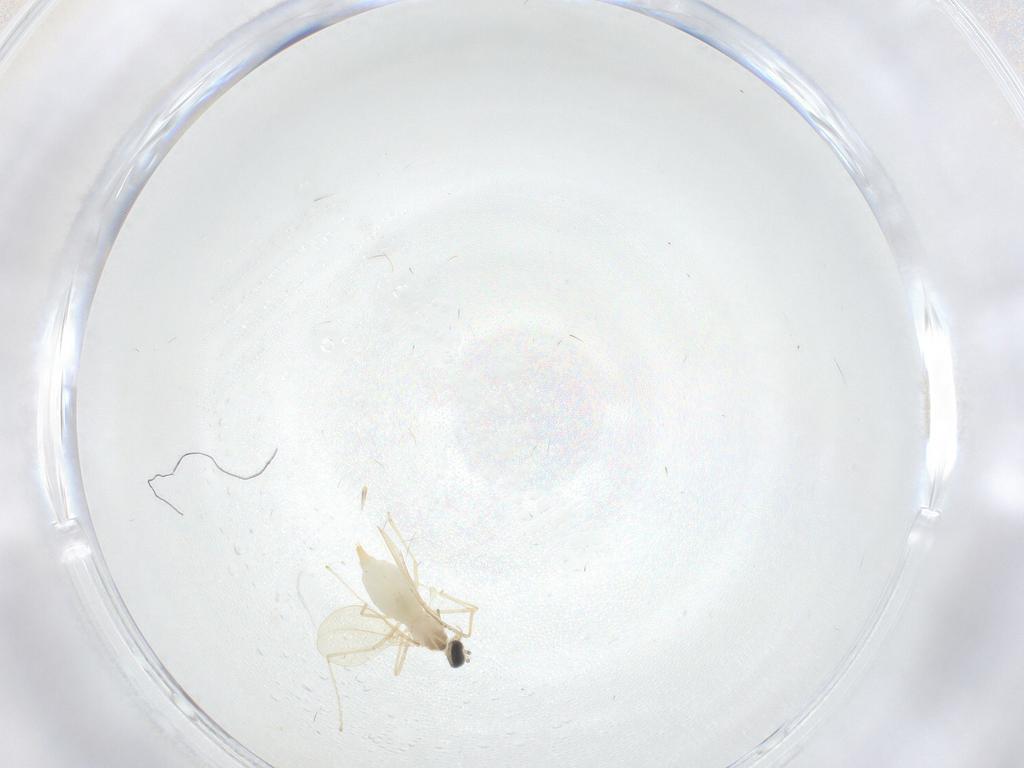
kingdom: Animalia
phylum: Arthropoda
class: Insecta
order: Diptera
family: Cecidomyiidae
